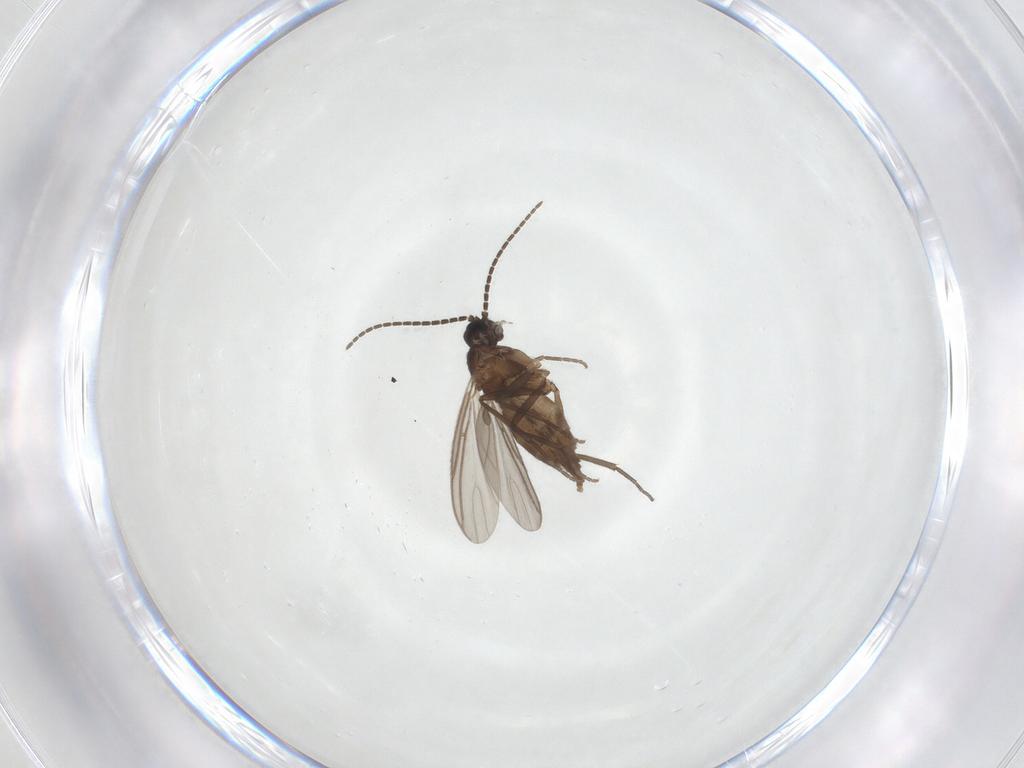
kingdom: Animalia
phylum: Arthropoda
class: Insecta
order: Diptera
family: Sciaridae
